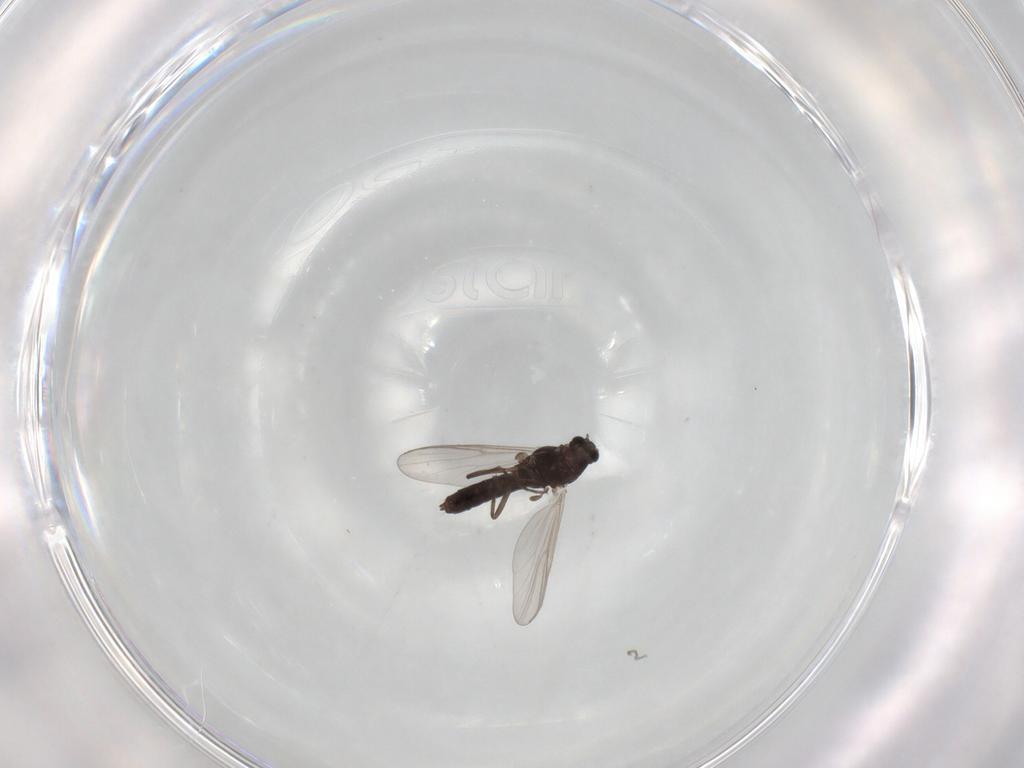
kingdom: Animalia
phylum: Arthropoda
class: Insecta
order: Diptera
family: Chironomidae
